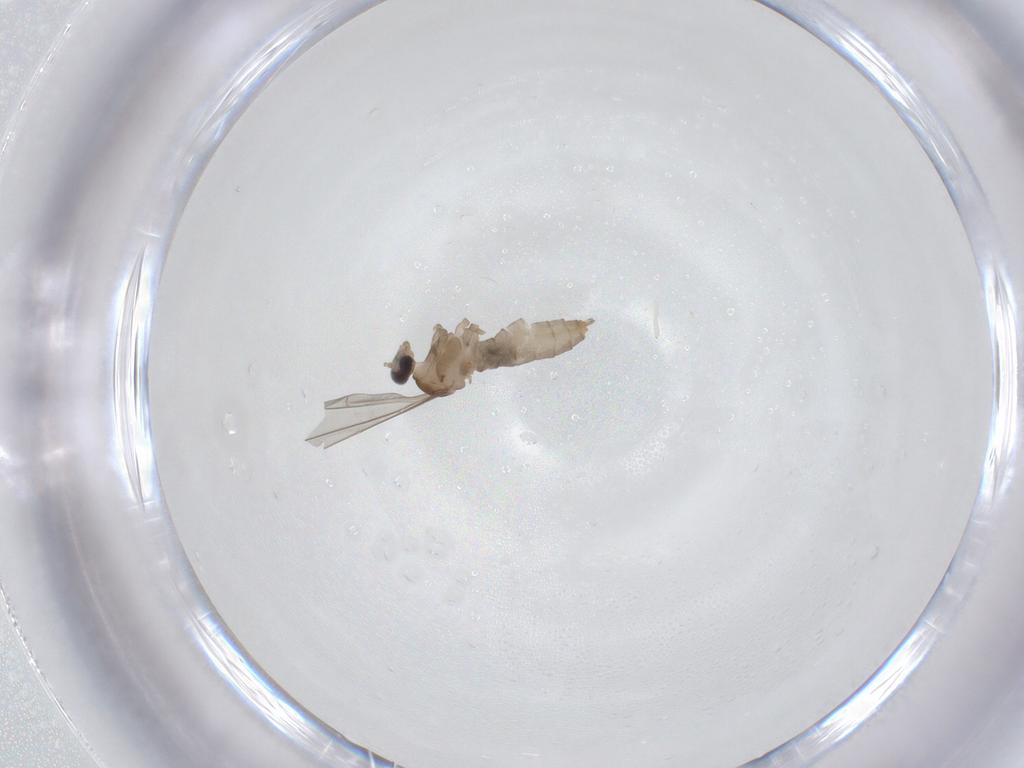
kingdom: Animalia
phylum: Arthropoda
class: Insecta
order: Diptera
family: Cecidomyiidae
